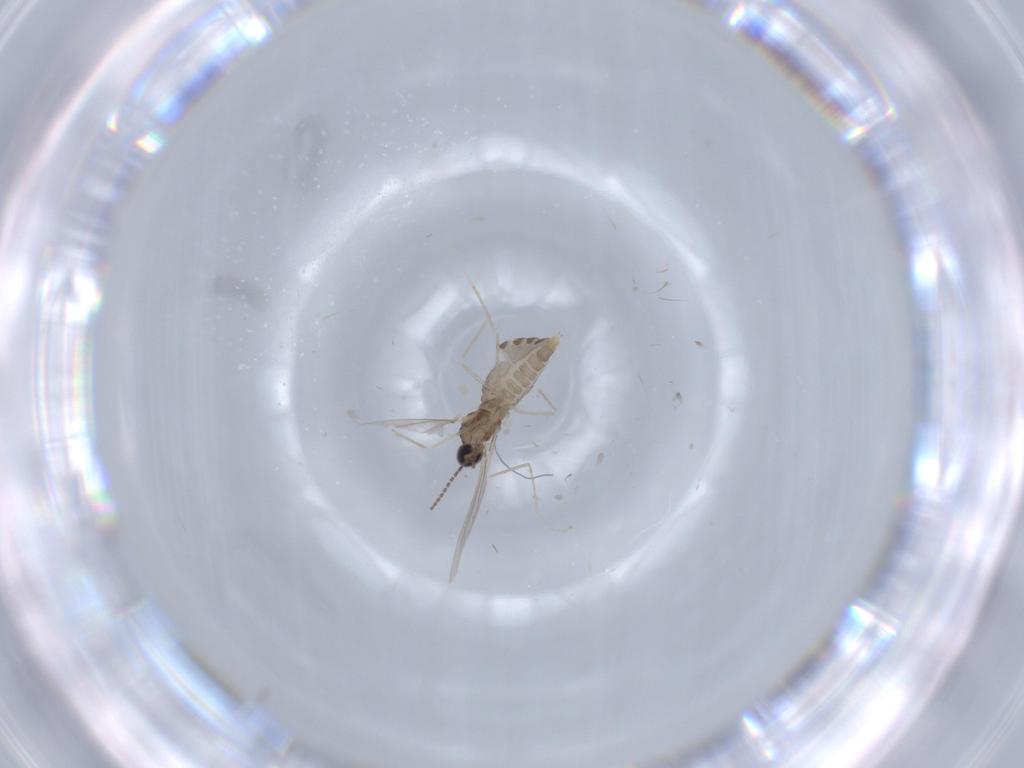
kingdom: Animalia
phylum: Arthropoda
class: Insecta
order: Diptera
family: Cecidomyiidae
